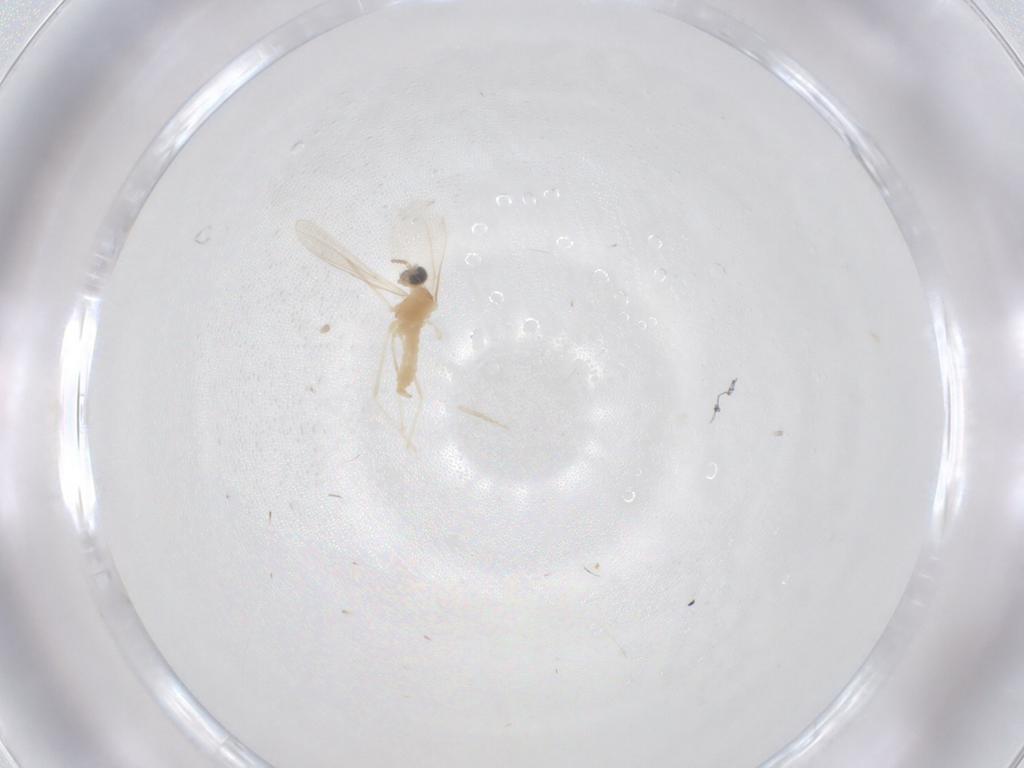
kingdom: Animalia
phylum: Arthropoda
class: Insecta
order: Diptera
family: Cecidomyiidae
